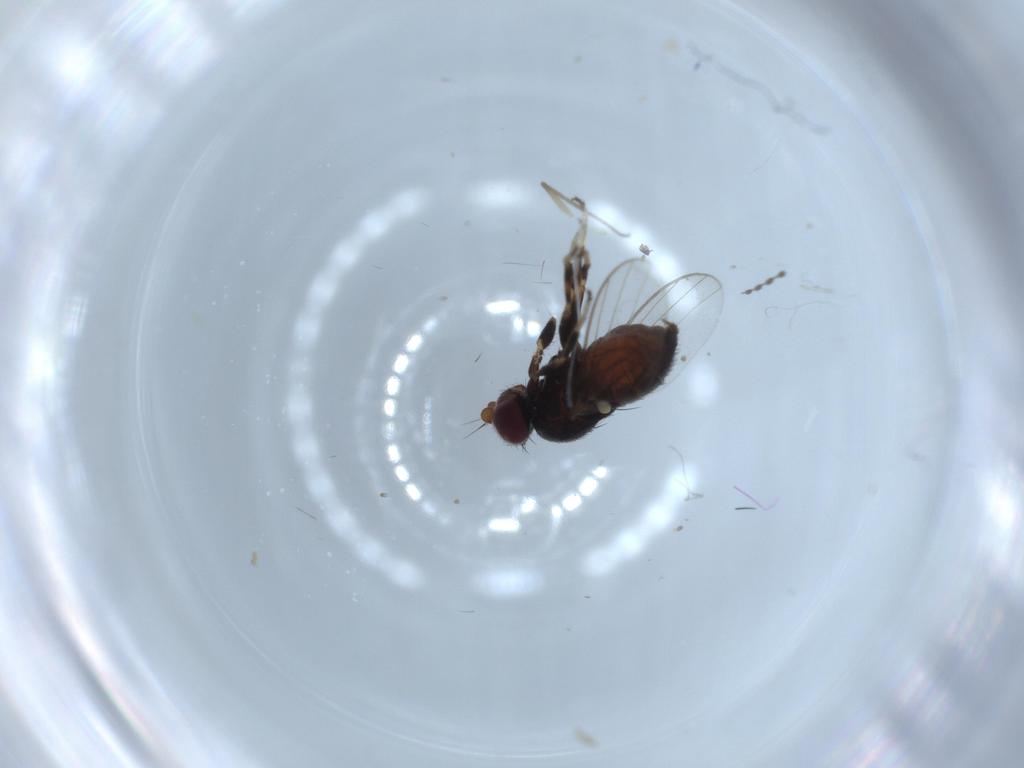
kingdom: Animalia
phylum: Arthropoda
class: Insecta
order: Diptera
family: Chloropidae
